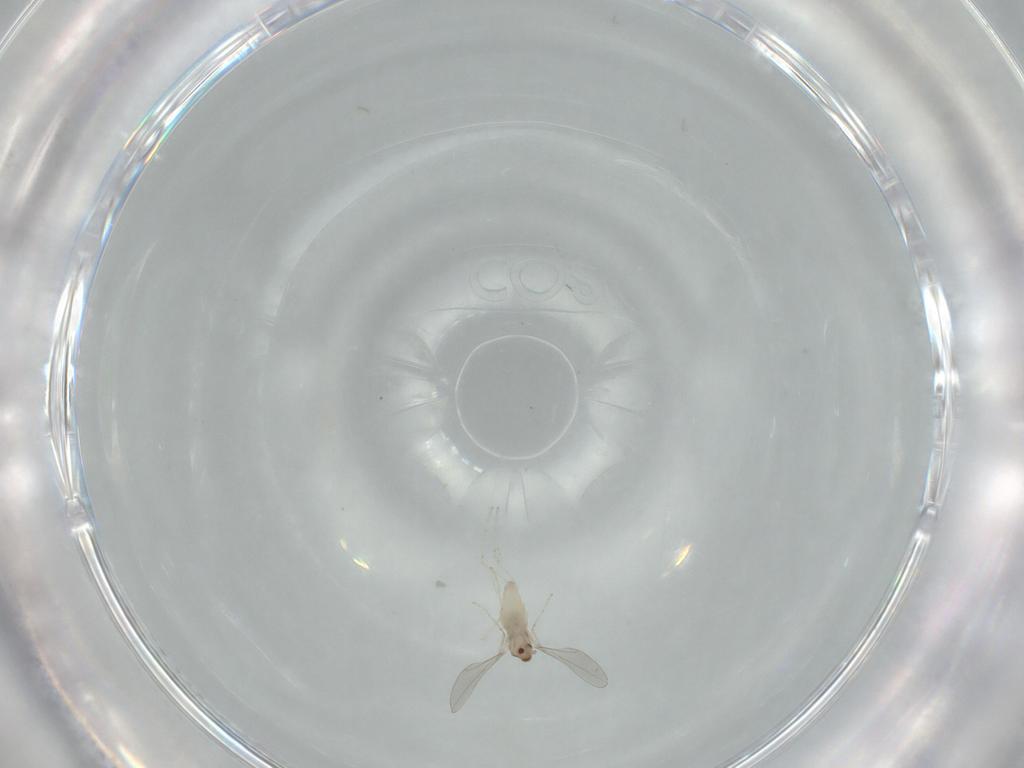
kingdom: Animalia
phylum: Arthropoda
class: Insecta
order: Diptera
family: Cecidomyiidae
